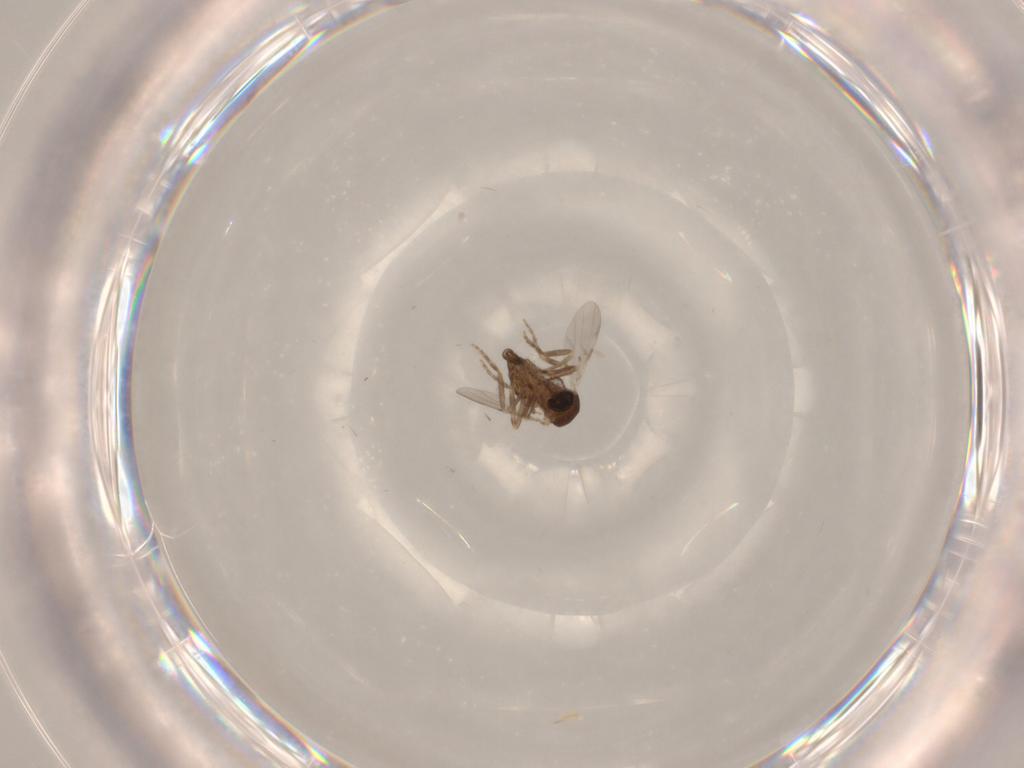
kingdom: Animalia
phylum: Arthropoda
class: Insecta
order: Diptera
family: Ceratopogonidae
